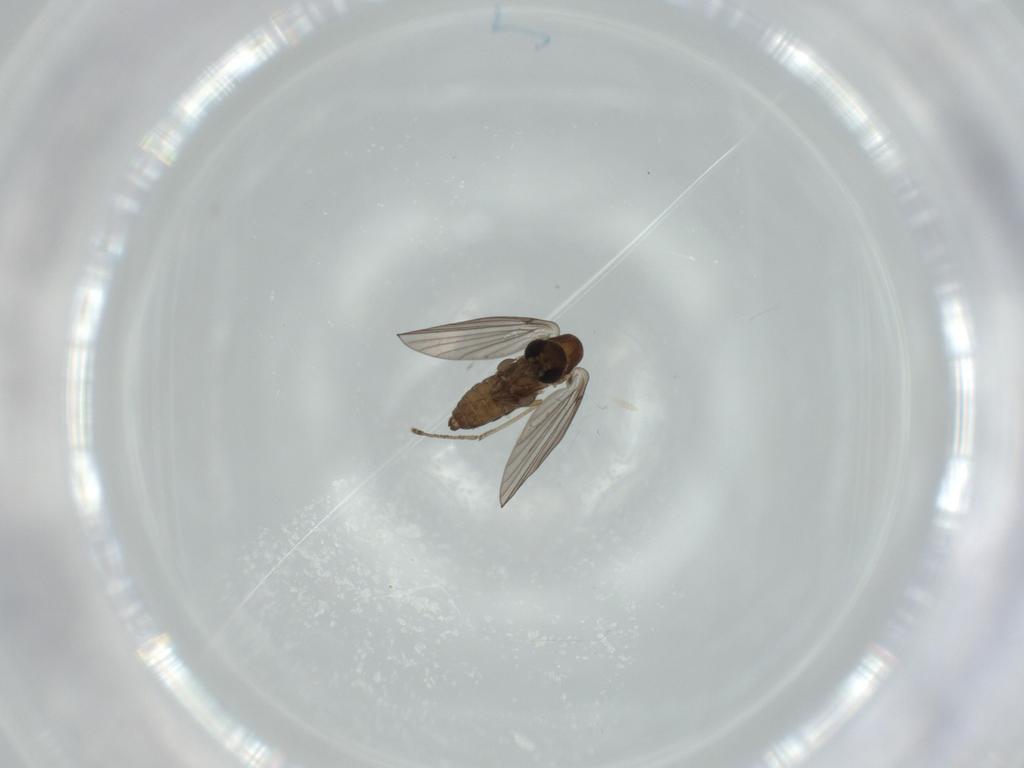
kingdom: Animalia
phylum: Arthropoda
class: Insecta
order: Diptera
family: Psychodidae
